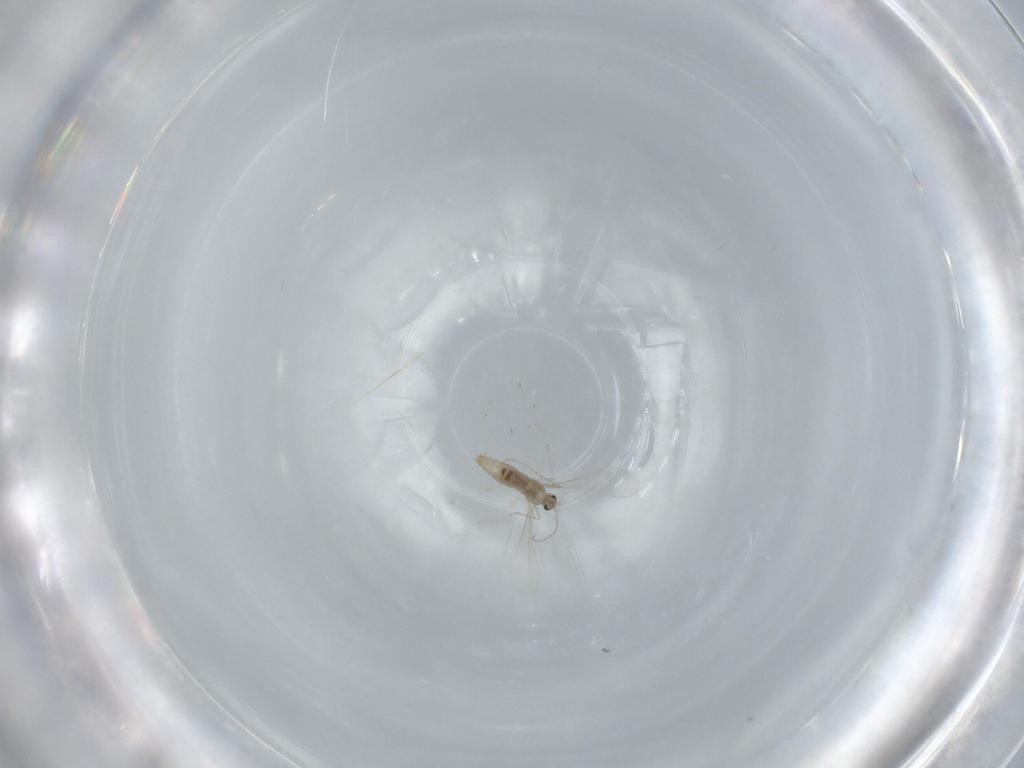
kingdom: Animalia
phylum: Arthropoda
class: Insecta
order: Diptera
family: Cecidomyiidae
